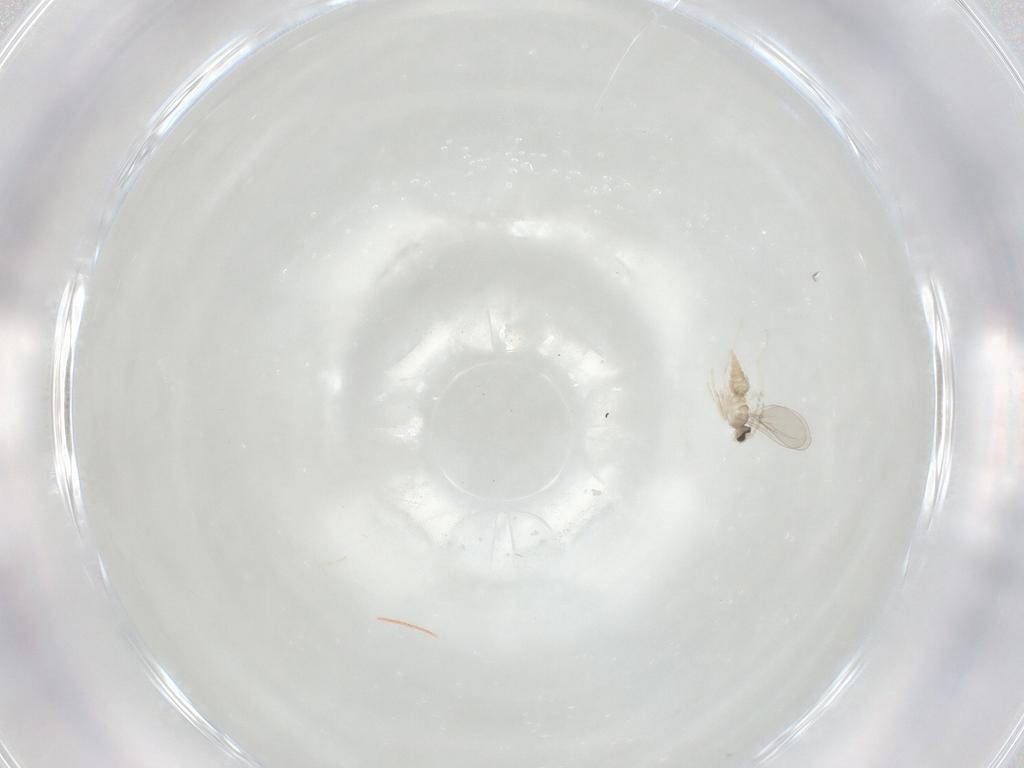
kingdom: Animalia
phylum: Arthropoda
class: Insecta
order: Diptera
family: Cecidomyiidae
